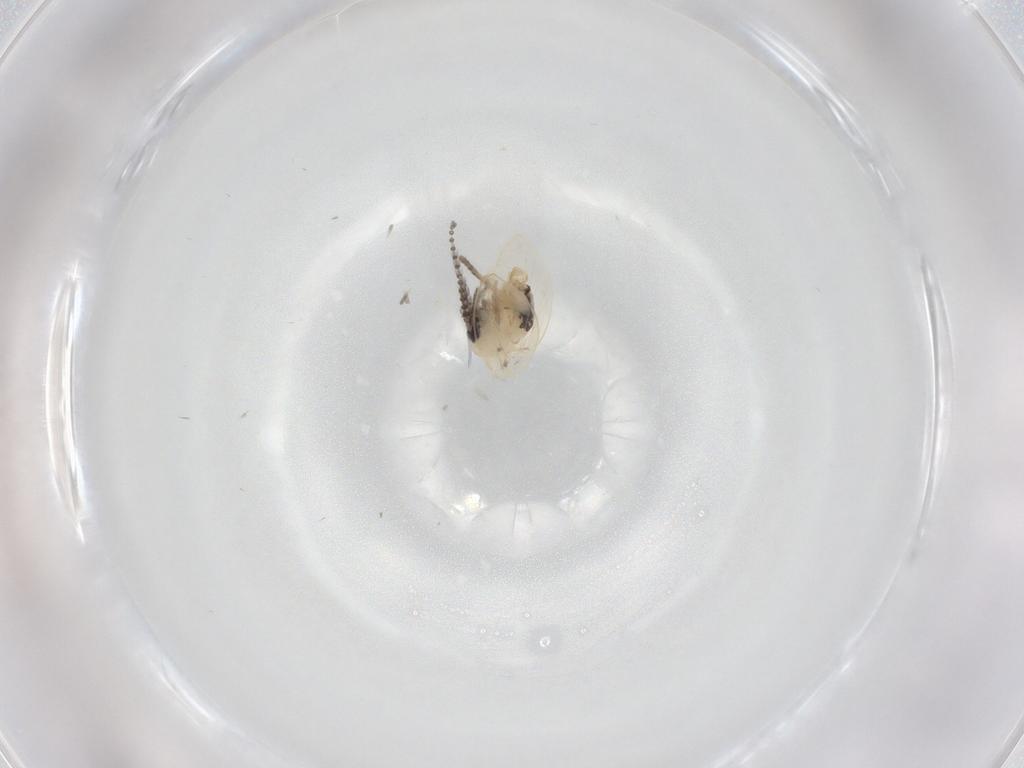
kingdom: Animalia
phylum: Arthropoda
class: Insecta
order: Diptera
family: Psychodidae
